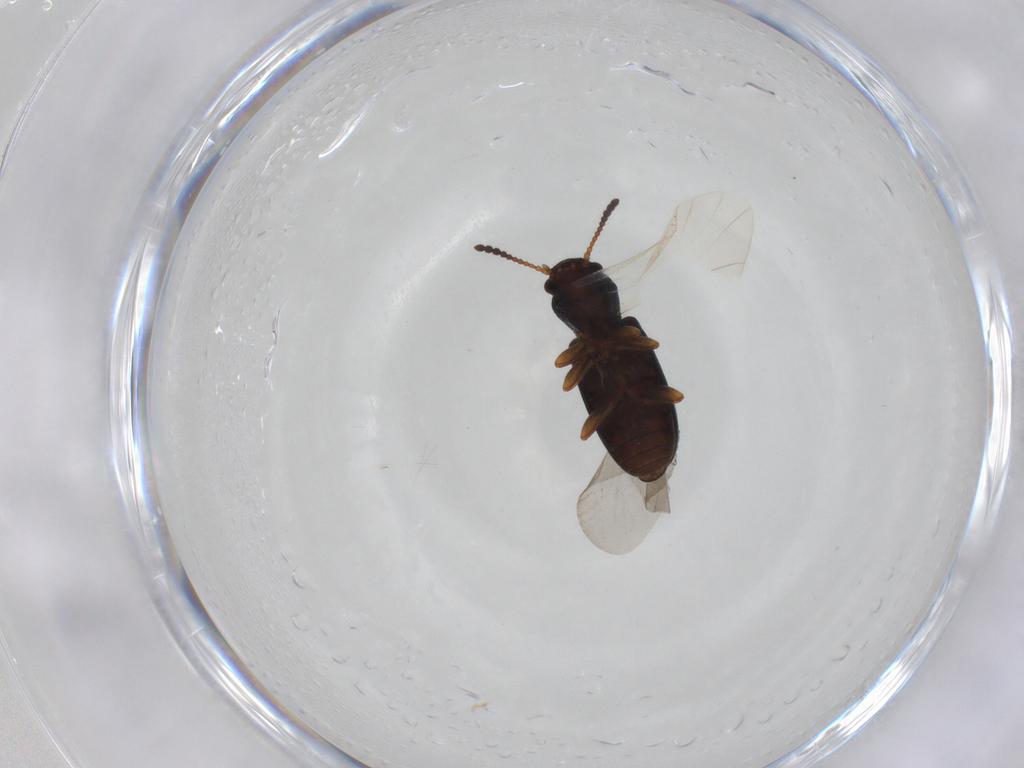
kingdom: Animalia
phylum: Arthropoda
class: Insecta
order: Coleoptera
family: Salpingidae
